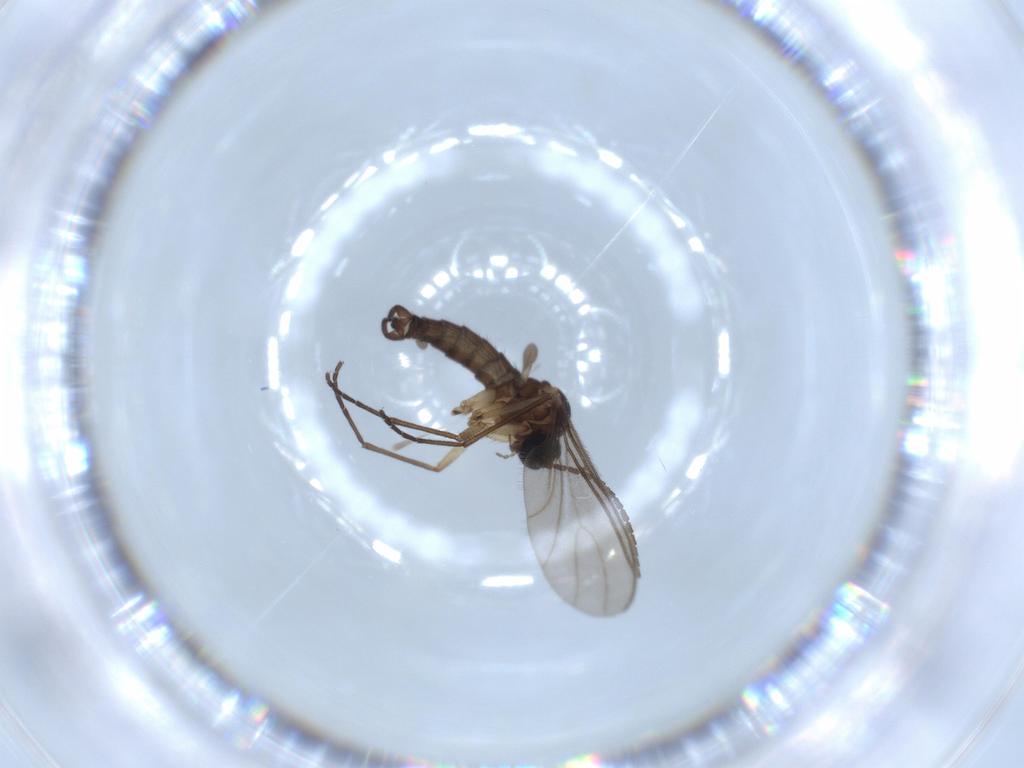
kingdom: Animalia
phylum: Arthropoda
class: Insecta
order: Diptera
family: Sciaridae
